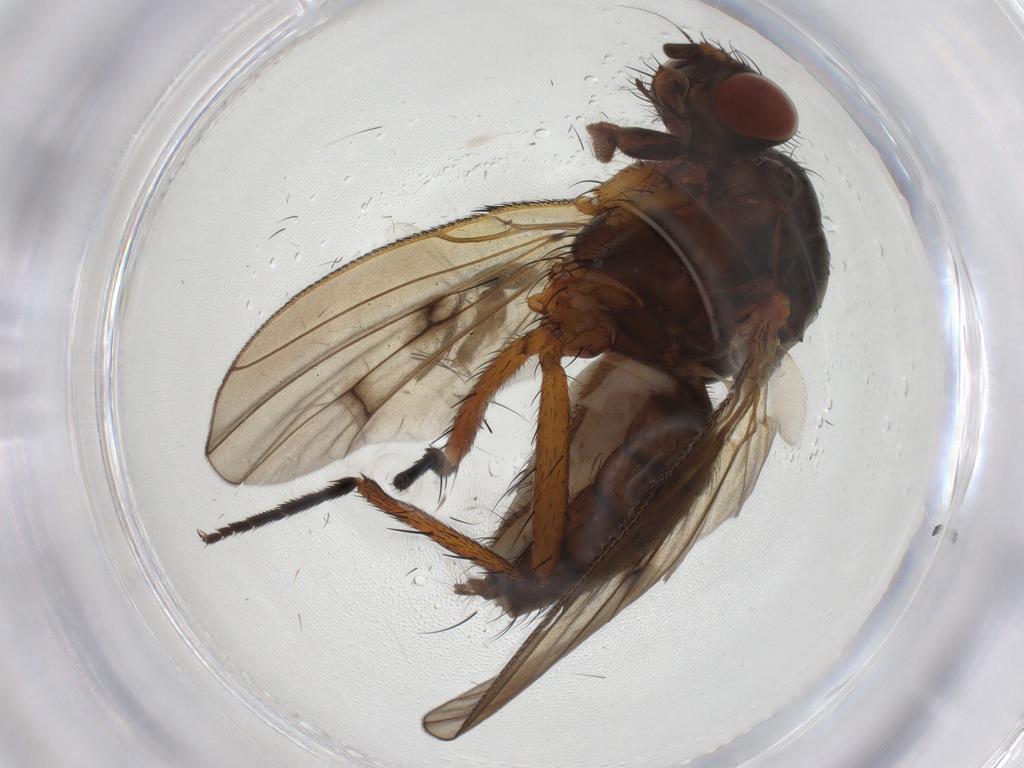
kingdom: Animalia
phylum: Arthropoda
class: Insecta
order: Diptera
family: Cecidomyiidae
